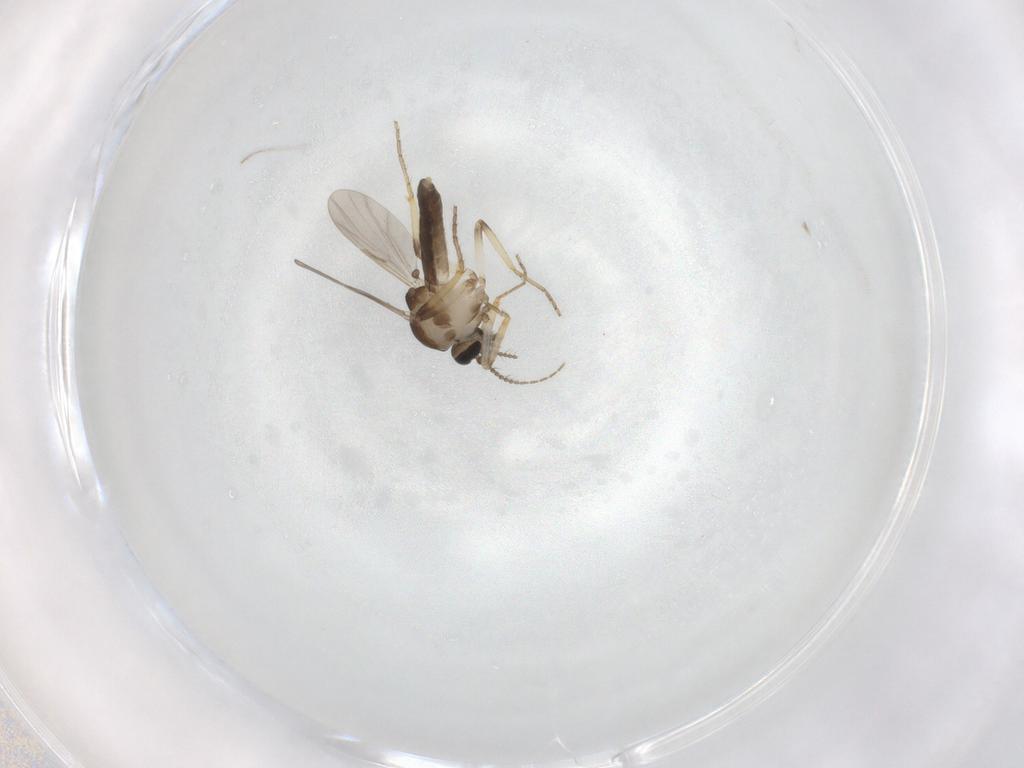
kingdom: Animalia
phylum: Arthropoda
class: Insecta
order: Diptera
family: Ceratopogonidae
